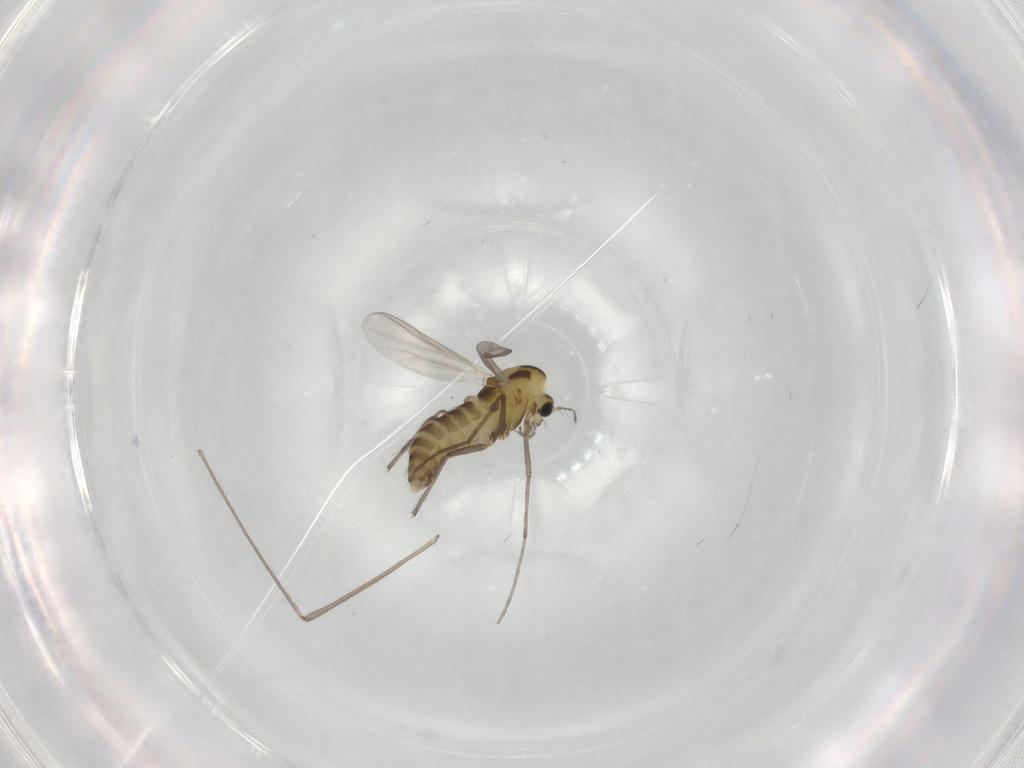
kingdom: Animalia
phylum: Arthropoda
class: Insecta
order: Diptera
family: Chironomidae
